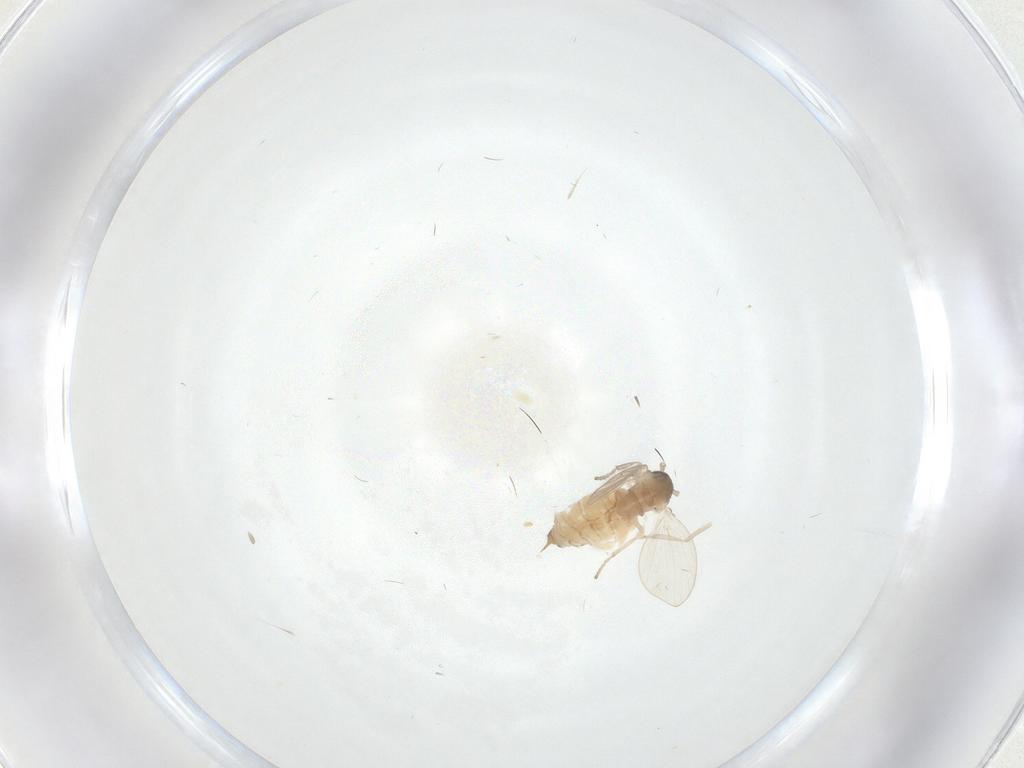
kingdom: Animalia
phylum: Arthropoda
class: Insecta
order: Diptera
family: Psychodidae
